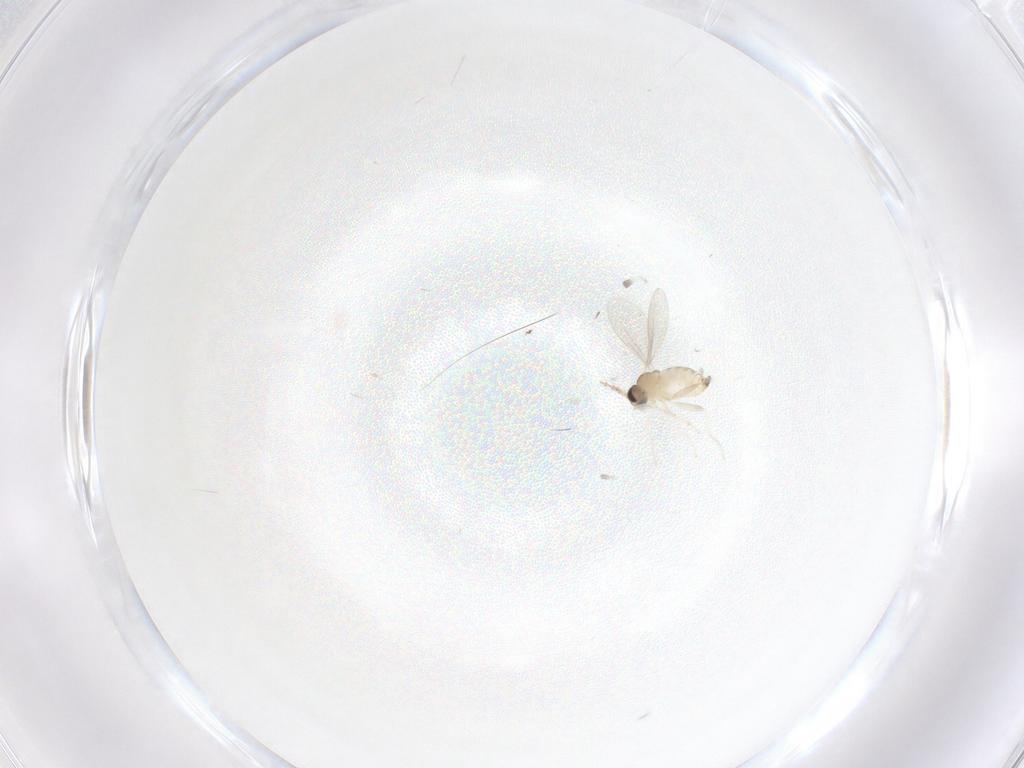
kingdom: Animalia
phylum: Arthropoda
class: Insecta
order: Diptera
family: Cecidomyiidae
